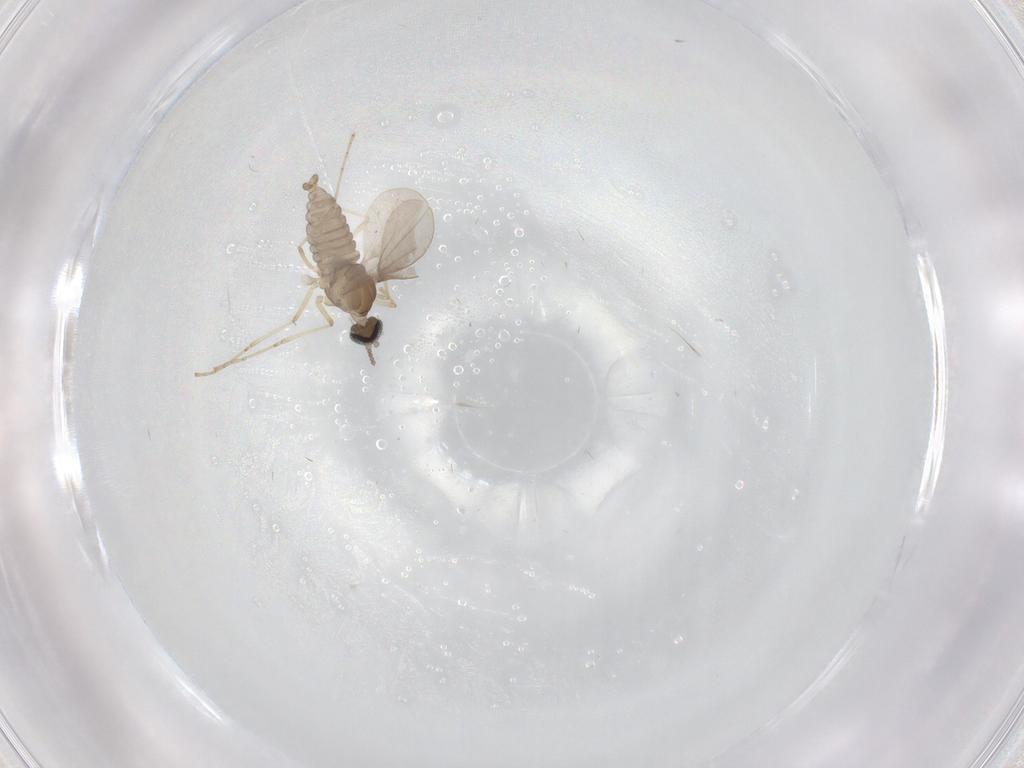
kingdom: Animalia
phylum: Arthropoda
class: Insecta
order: Diptera
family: Cecidomyiidae
